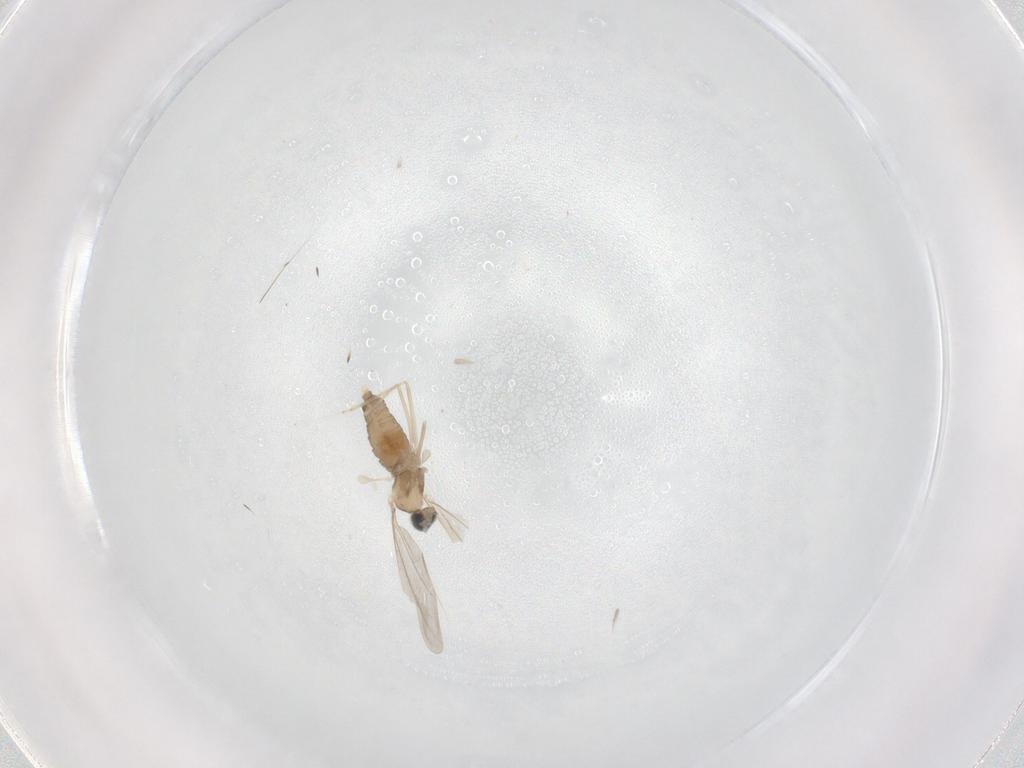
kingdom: Animalia
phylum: Arthropoda
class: Insecta
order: Diptera
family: Cecidomyiidae
